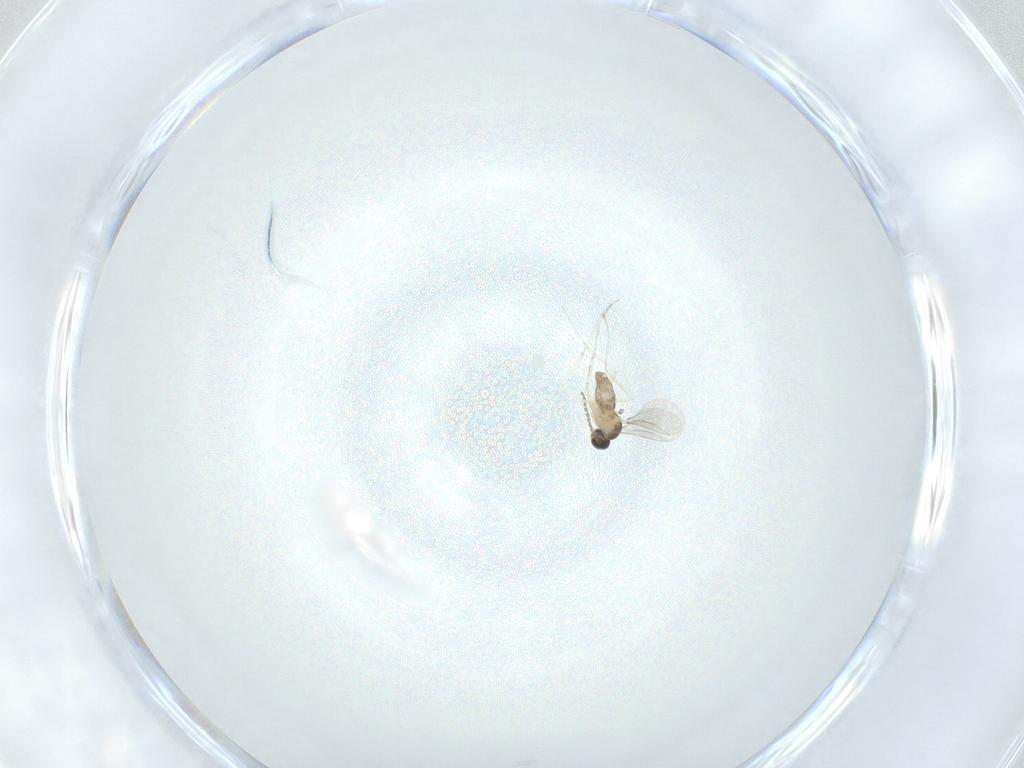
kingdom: Animalia
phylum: Arthropoda
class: Insecta
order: Diptera
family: Cecidomyiidae
